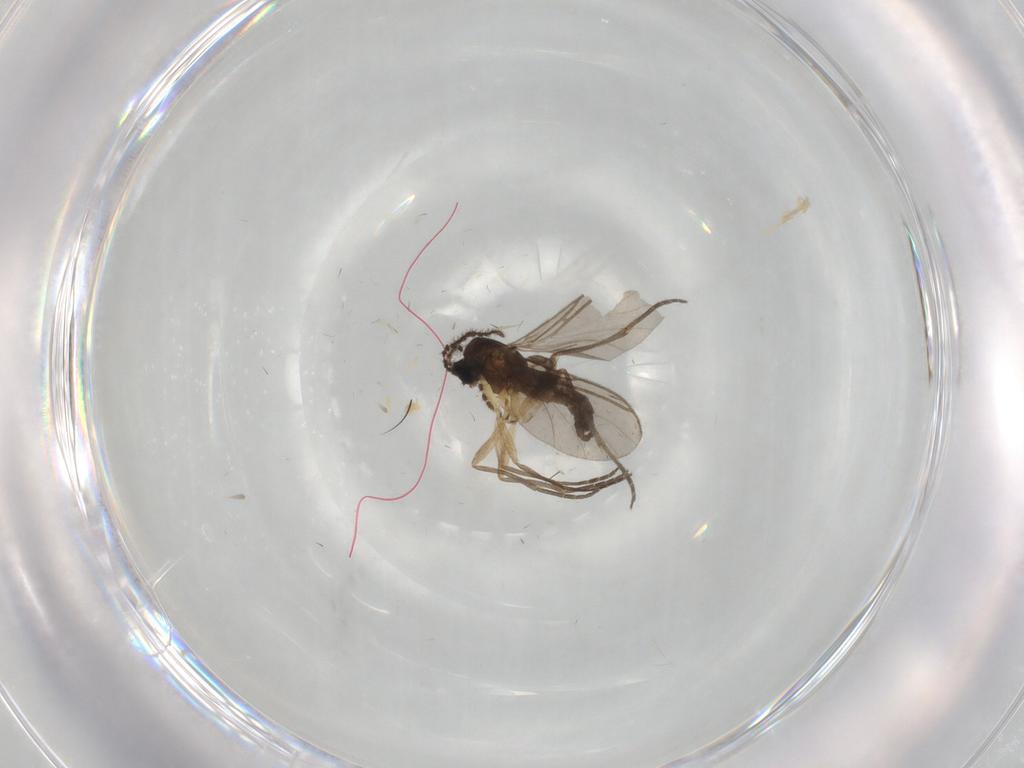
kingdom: Animalia
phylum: Arthropoda
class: Insecta
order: Diptera
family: Sciaridae
